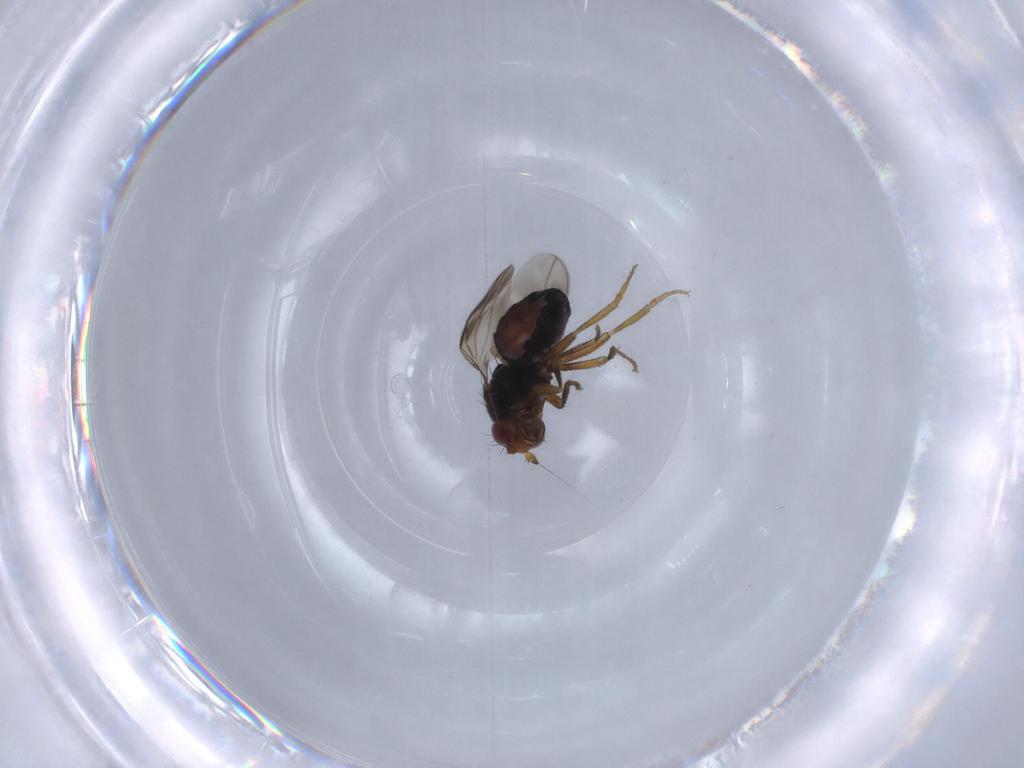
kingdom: Animalia
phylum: Arthropoda
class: Insecta
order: Diptera
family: Sphaeroceridae
